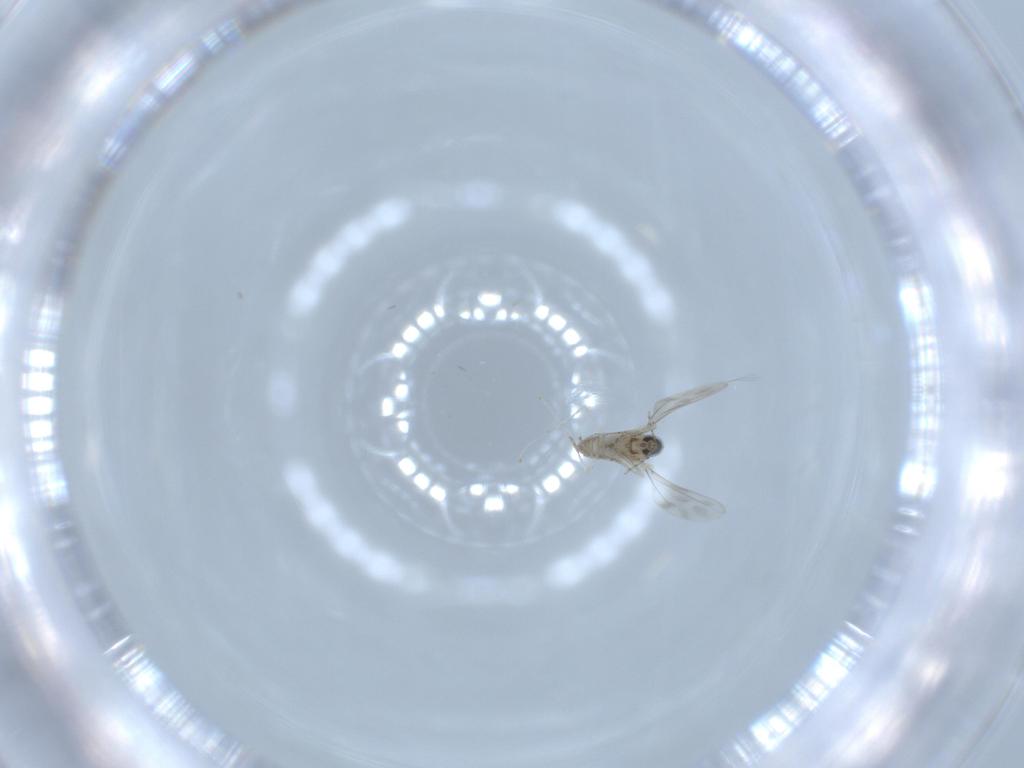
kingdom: Animalia
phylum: Arthropoda
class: Insecta
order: Diptera
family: Cecidomyiidae
